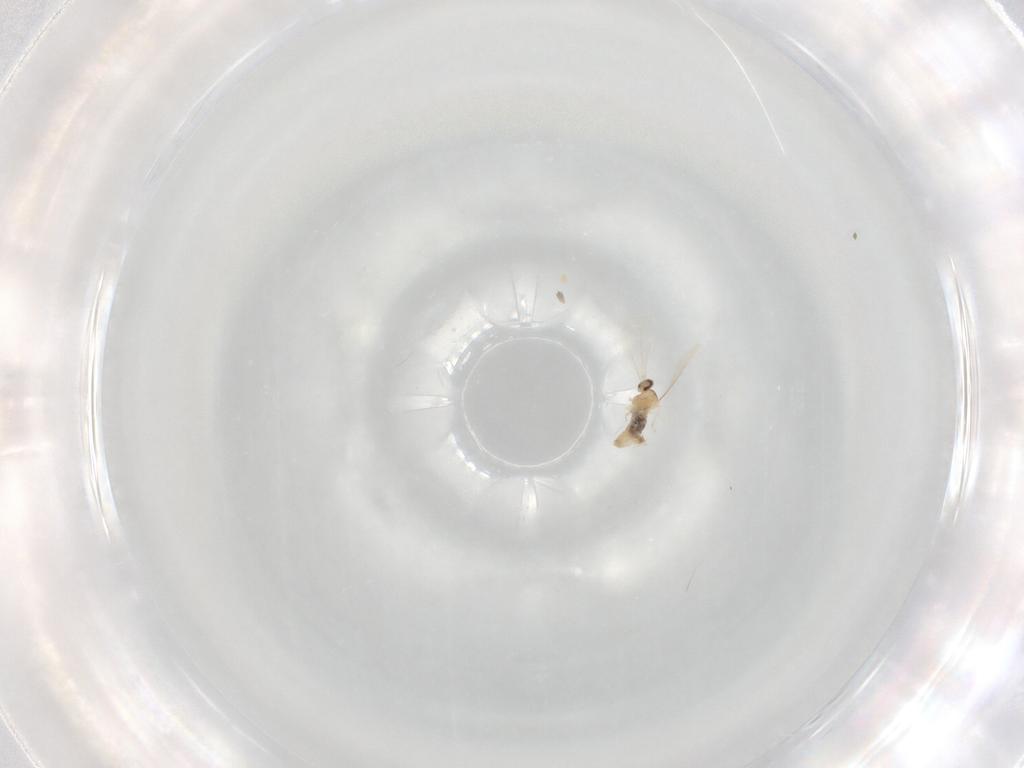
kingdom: Animalia
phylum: Arthropoda
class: Insecta
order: Diptera
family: Cecidomyiidae
